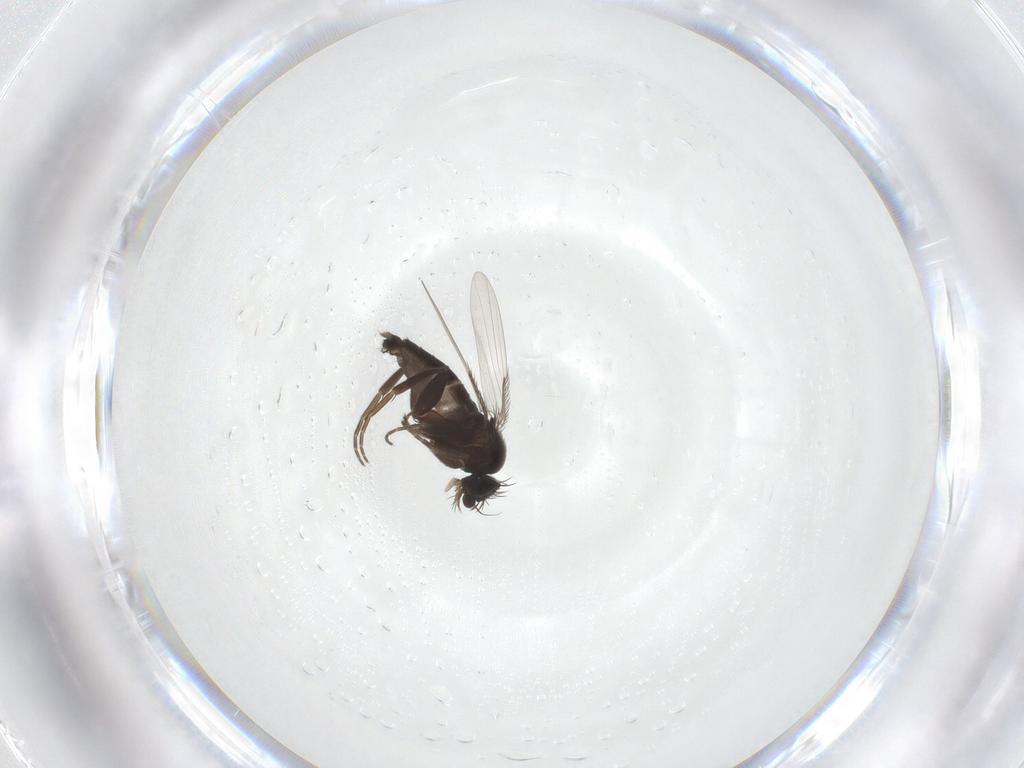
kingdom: Animalia
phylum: Arthropoda
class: Insecta
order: Diptera
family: Phoridae
